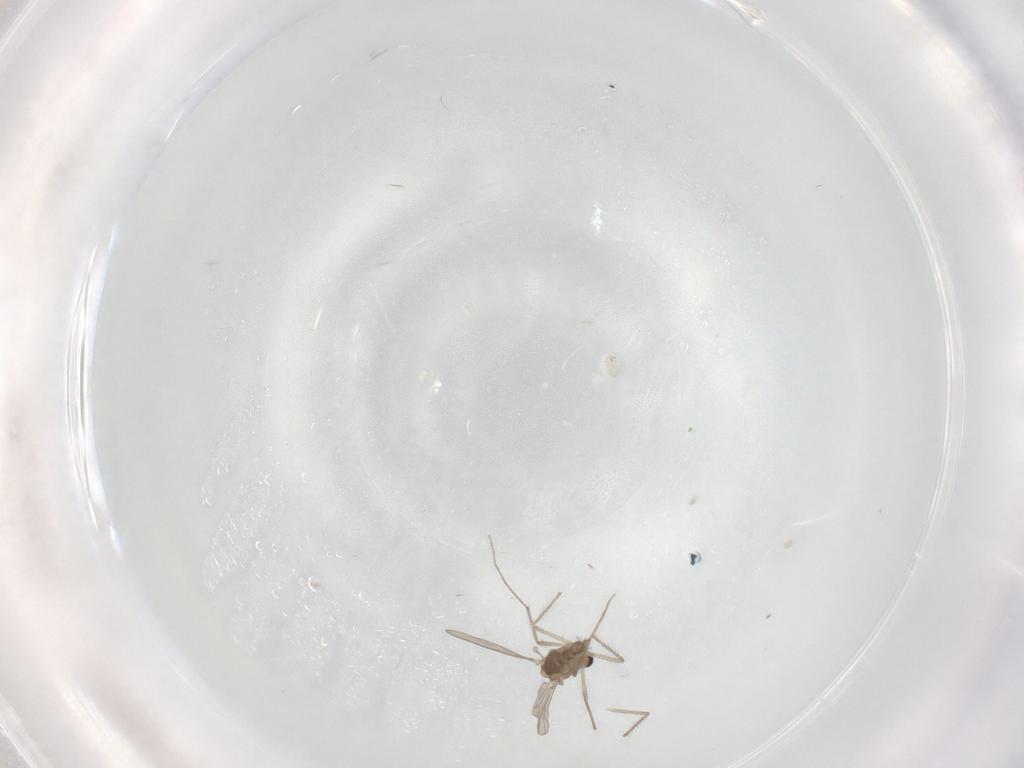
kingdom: Animalia
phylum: Arthropoda
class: Insecta
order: Diptera
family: Chironomidae
